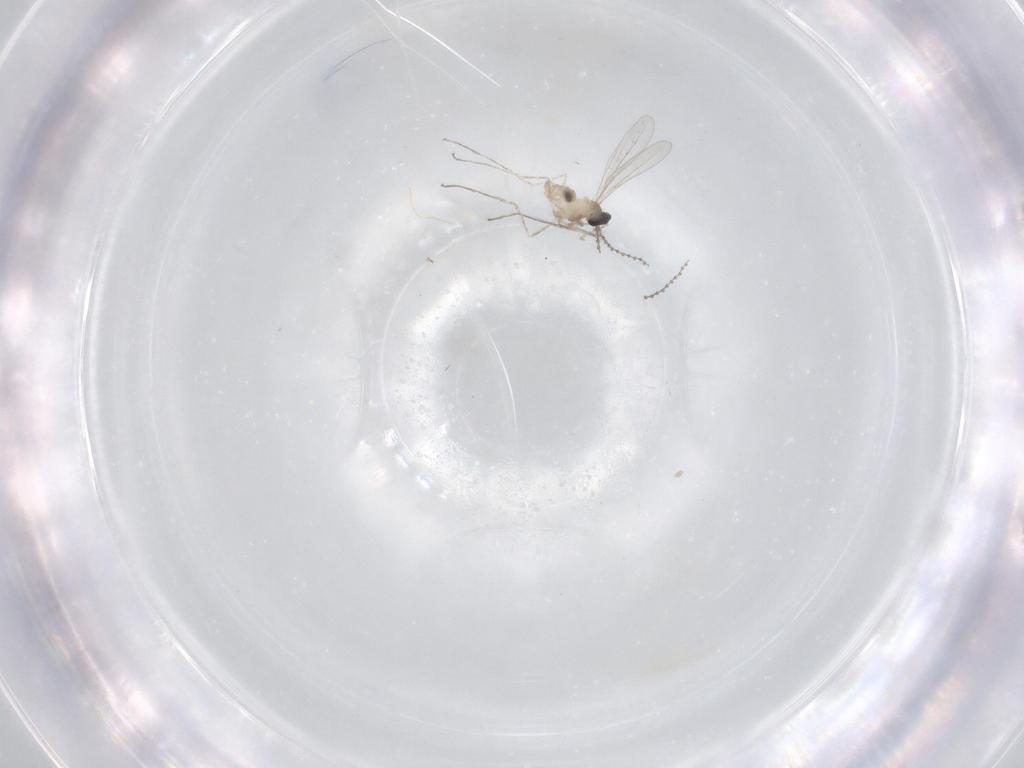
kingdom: Animalia
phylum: Arthropoda
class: Insecta
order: Diptera
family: Cecidomyiidae
